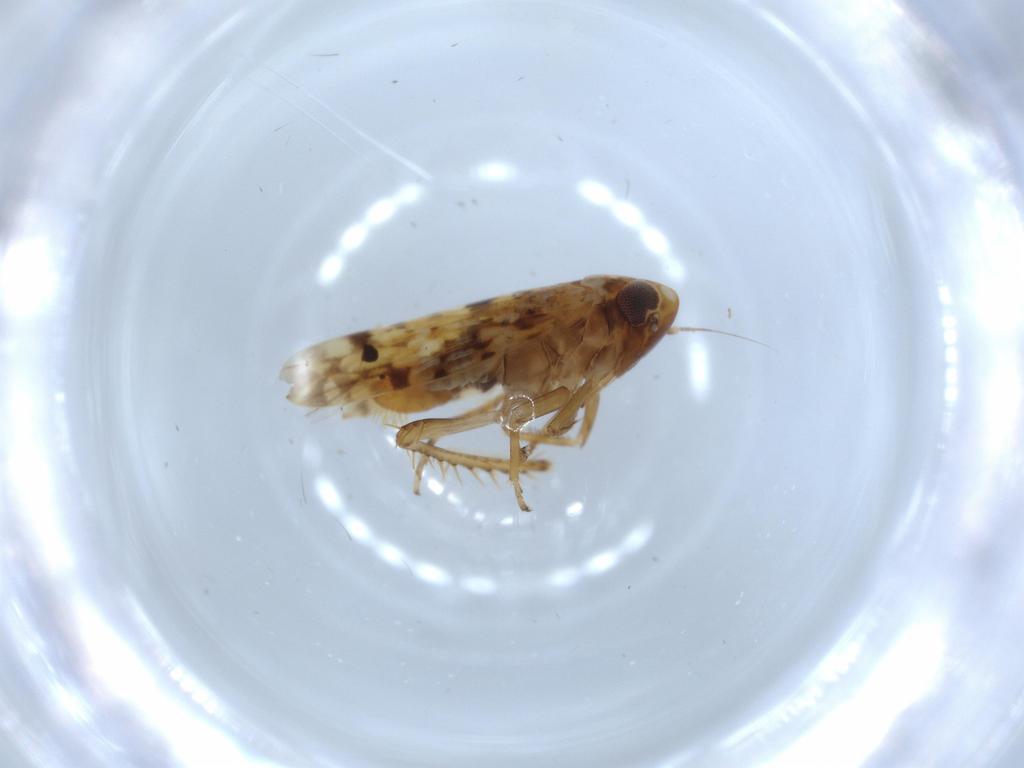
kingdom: Animalia
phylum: Arthropoda
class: Insecta
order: Hemiptera
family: Cicadellidae
